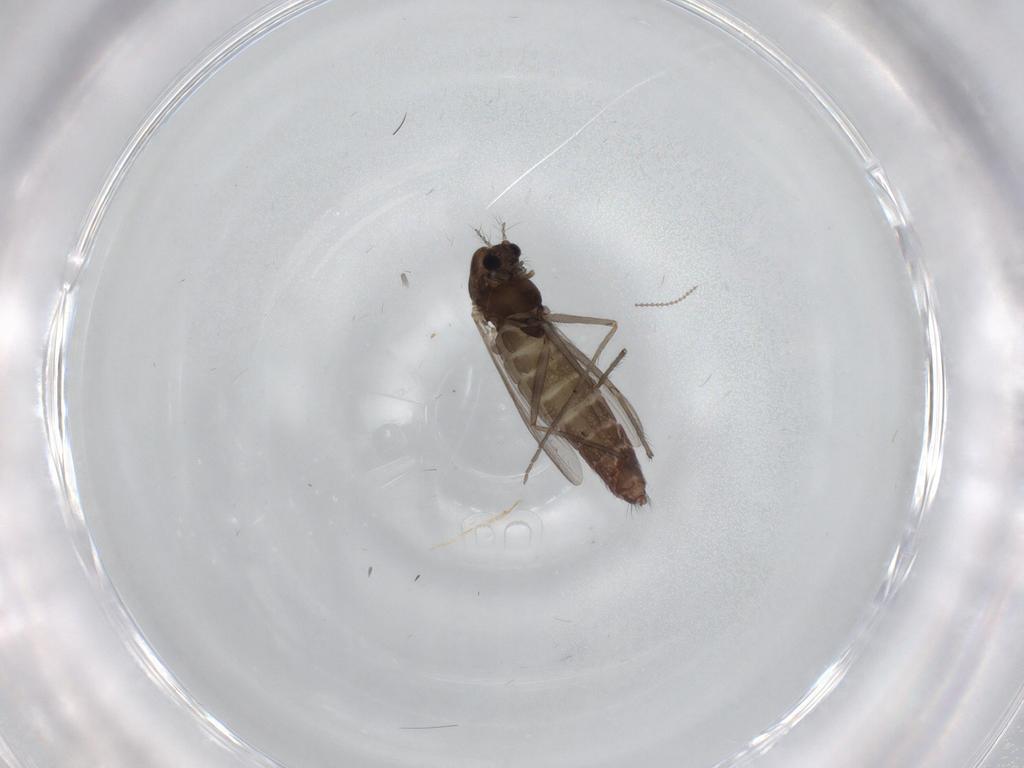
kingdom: Animalia
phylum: Arthropoda
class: Insecta
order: Diptera
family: Chironomidae
